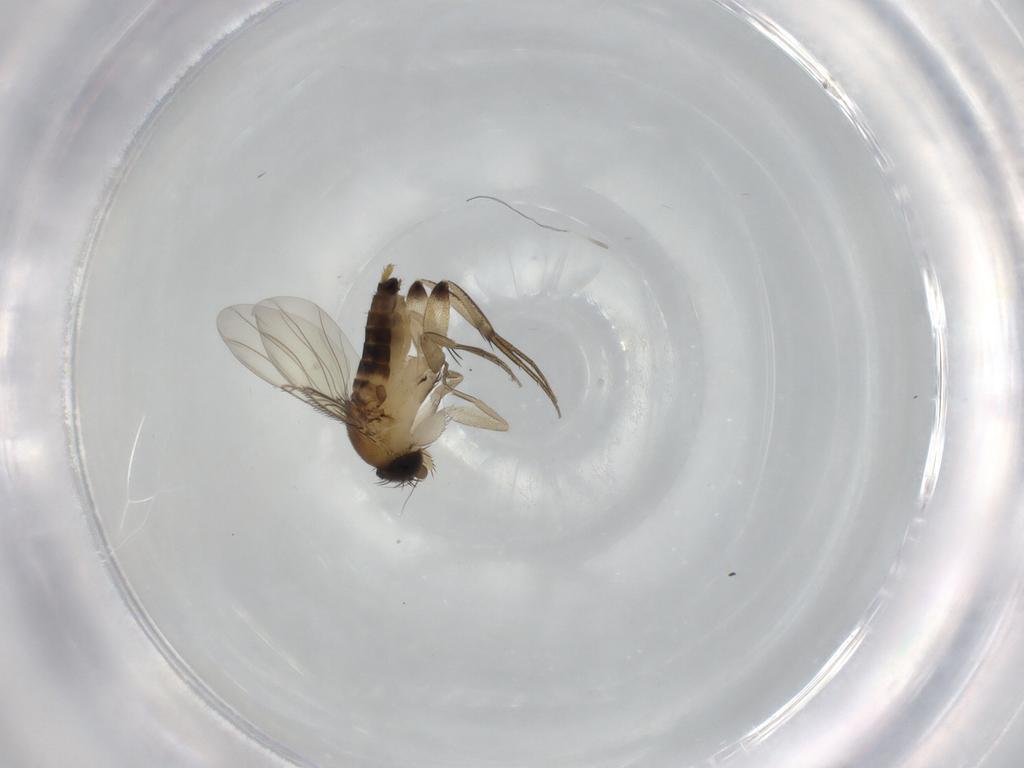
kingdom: Animalia
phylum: Arthropoda
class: Insecta
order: Diptera
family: Phoridae
